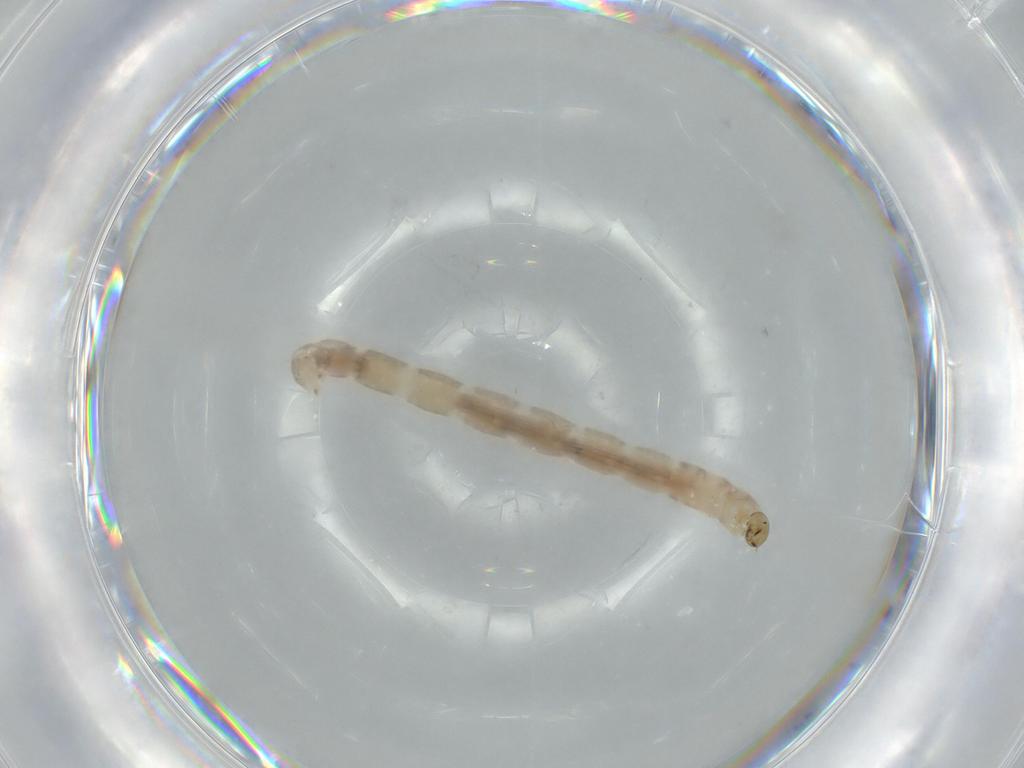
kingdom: Animalia
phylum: Arthropoda
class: Insecta
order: Diptera
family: Chironomidae
